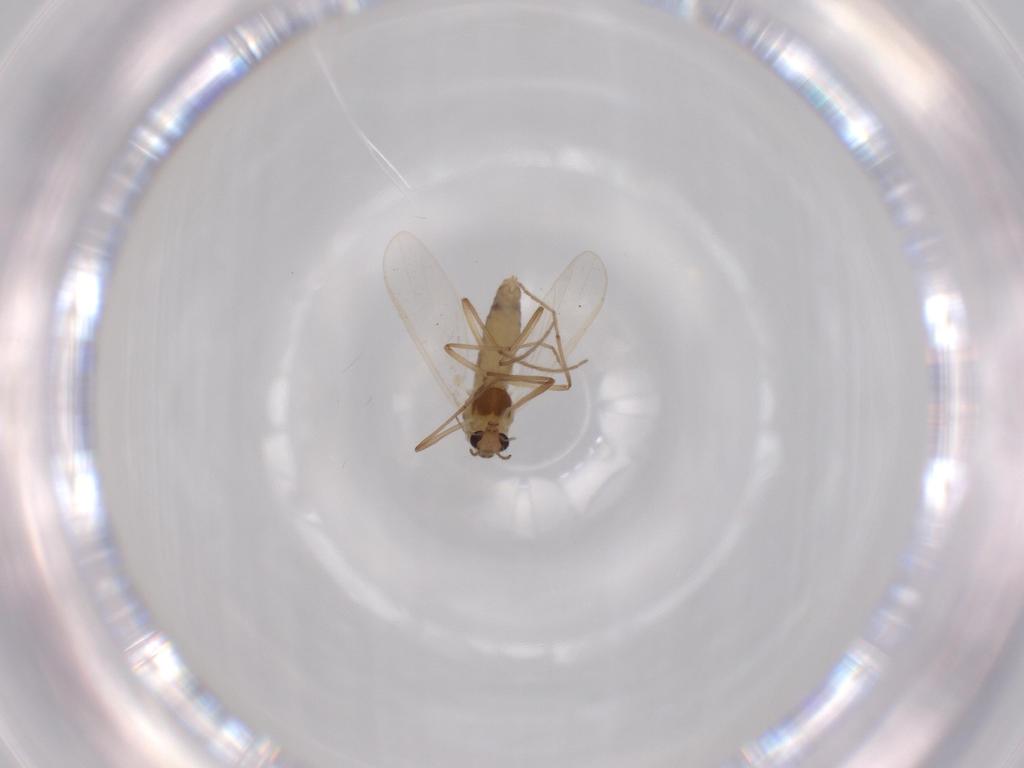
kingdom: Animalia
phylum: Arthropoda
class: Insecta
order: Diptera
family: Chironomidae
